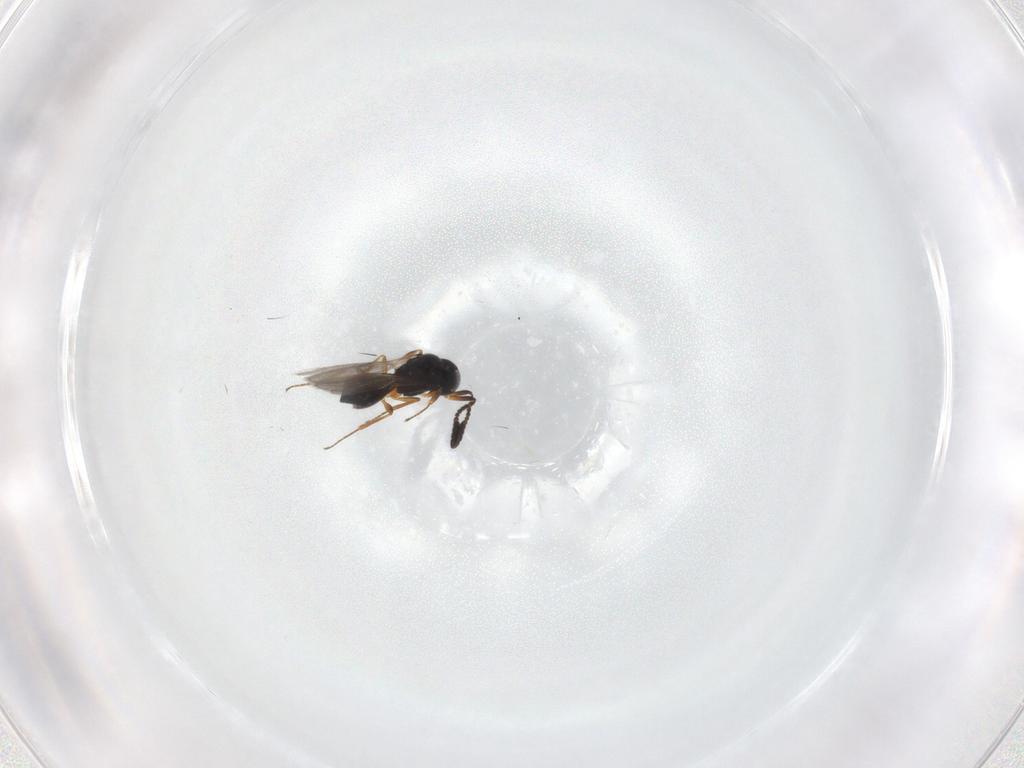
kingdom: Animalia
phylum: Arthropoda
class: Insecta
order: Hymenoptera
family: Scelionidae
